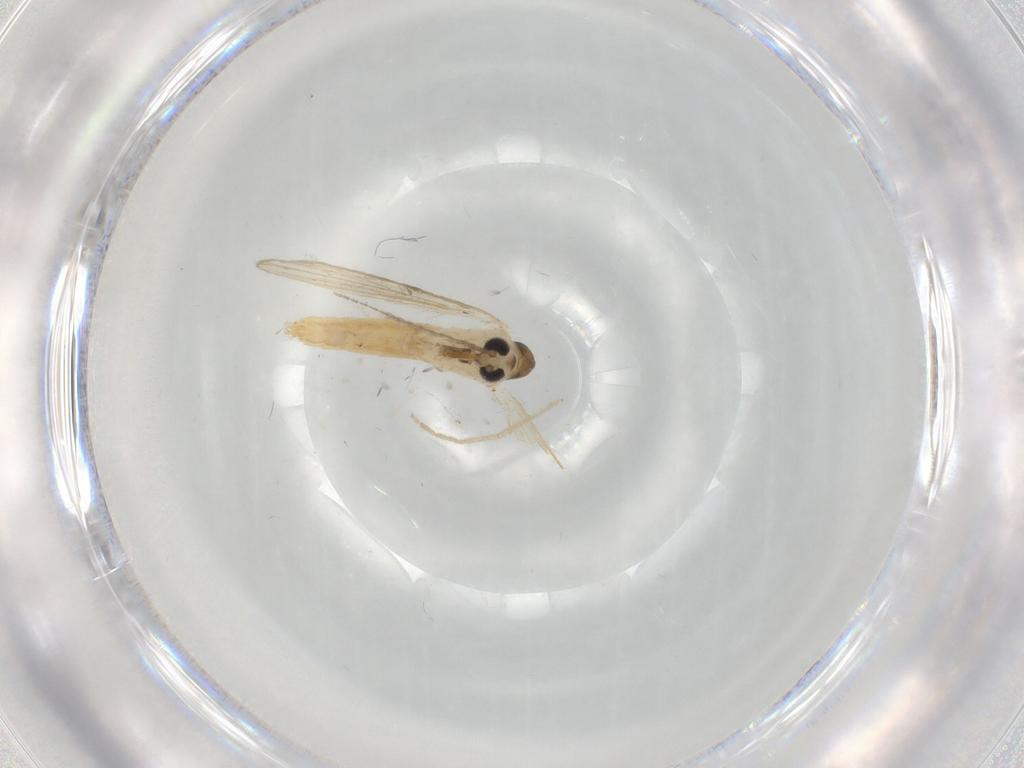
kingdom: Animalia
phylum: Arthropoda
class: Insecta
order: Diptera
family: Psychodidae
